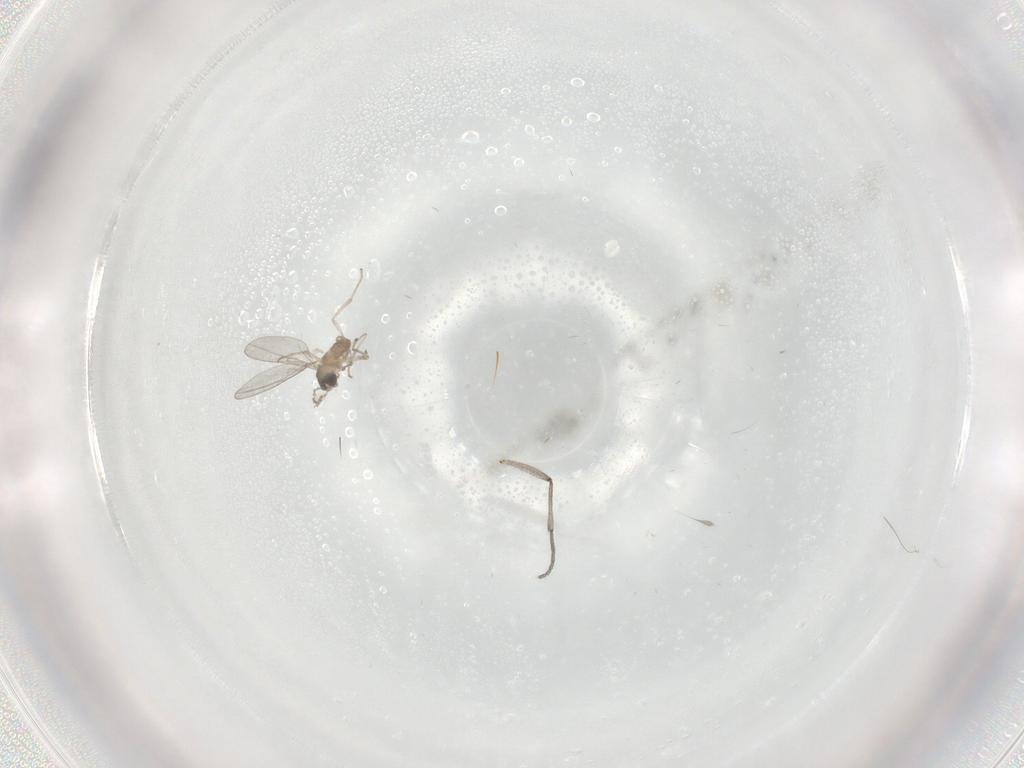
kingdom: Animalia
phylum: Arthropoda
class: Insecta
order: Diptera
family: Sciaridae
